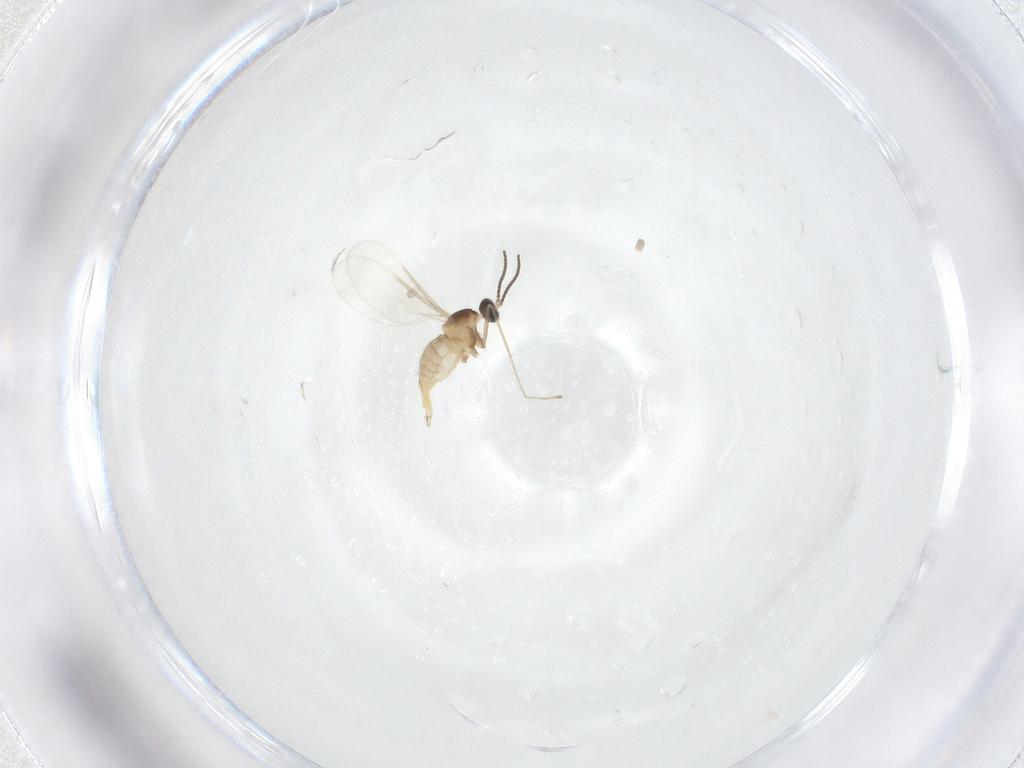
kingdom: Animalia
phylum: Arthropoda
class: Insecta
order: Diptera
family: Cecidomyiidae
